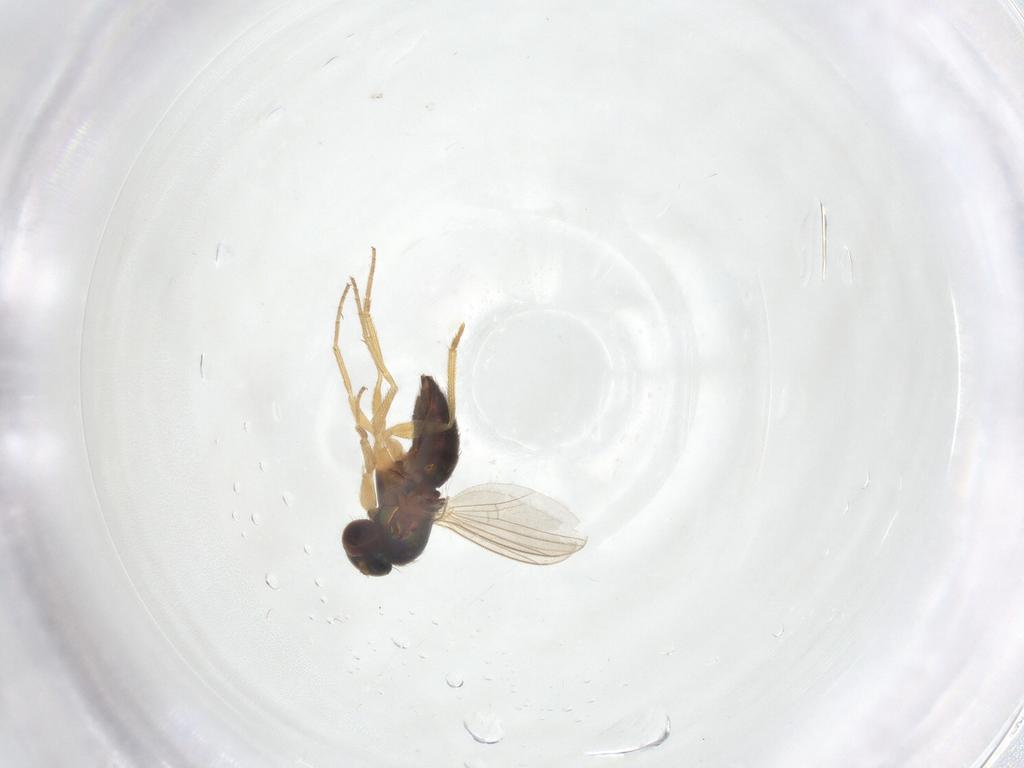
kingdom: Animalia
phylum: Arthropoda
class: Insecta
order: Diptera
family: Dolichopodidae
